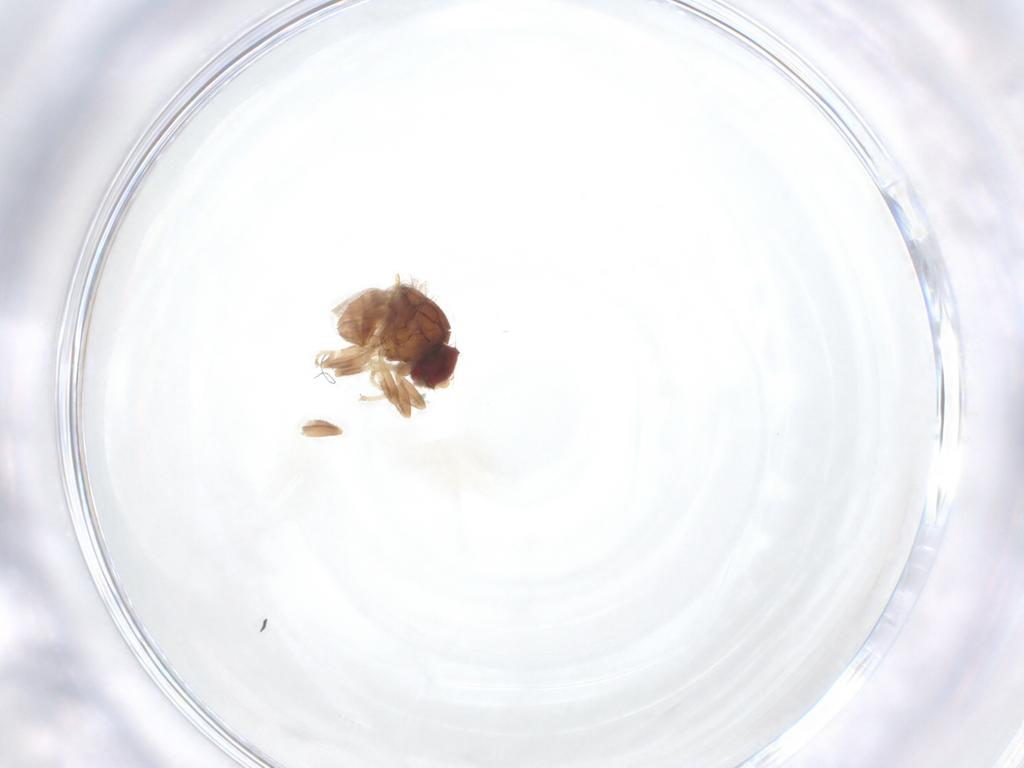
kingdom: Animalia
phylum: Arthropoda
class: Insecta
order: Diptera
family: Chloropidae
